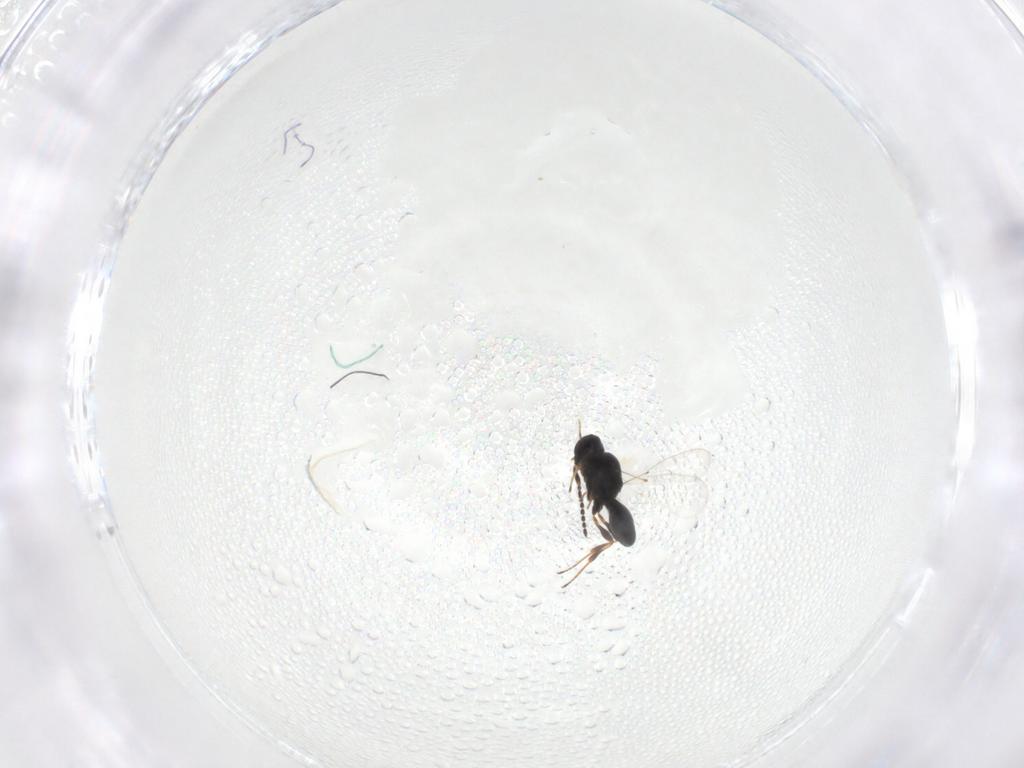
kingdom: Animalia
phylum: Arthropoda
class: Insecta
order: Hymenoptera
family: Platygastridae
